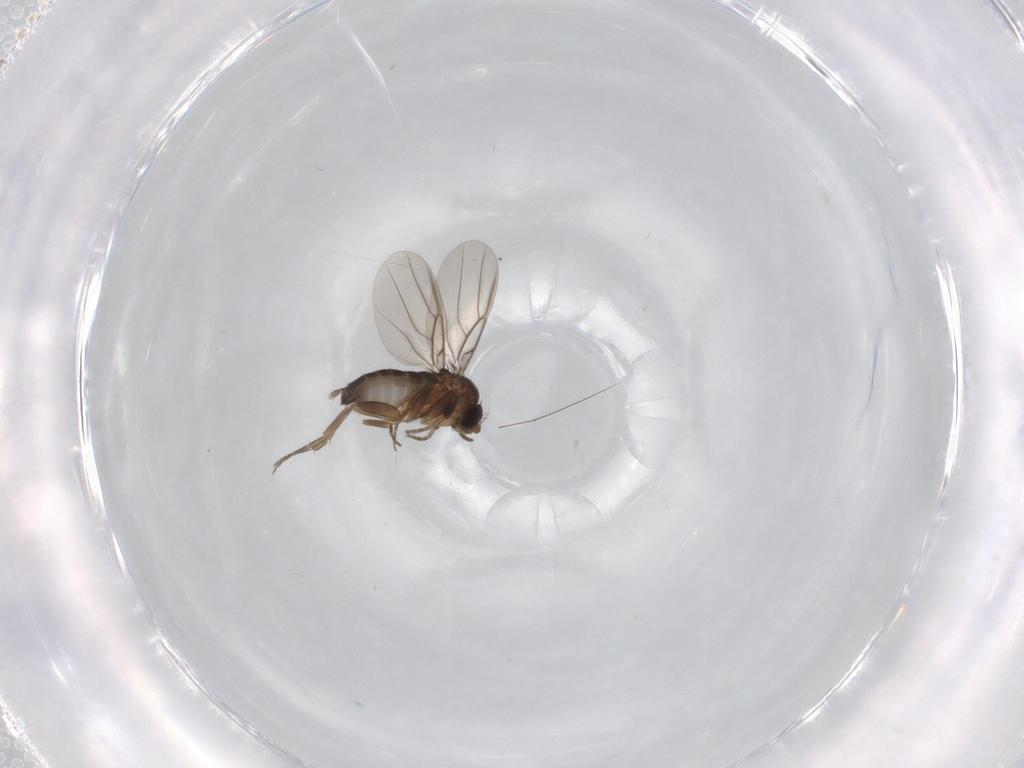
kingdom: Animalia
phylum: Arthropoda
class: Insecta
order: Diptera
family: Phoridae
